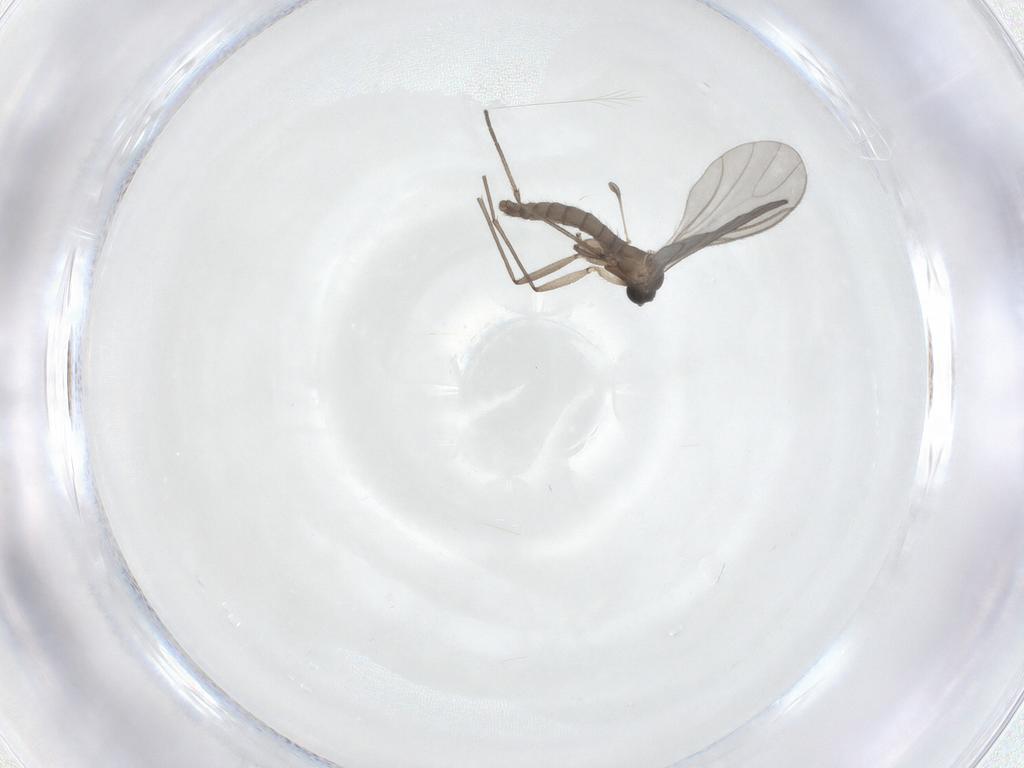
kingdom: Animalia
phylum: Arthropoda
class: Insecta
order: Diptera
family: Sciaridae
